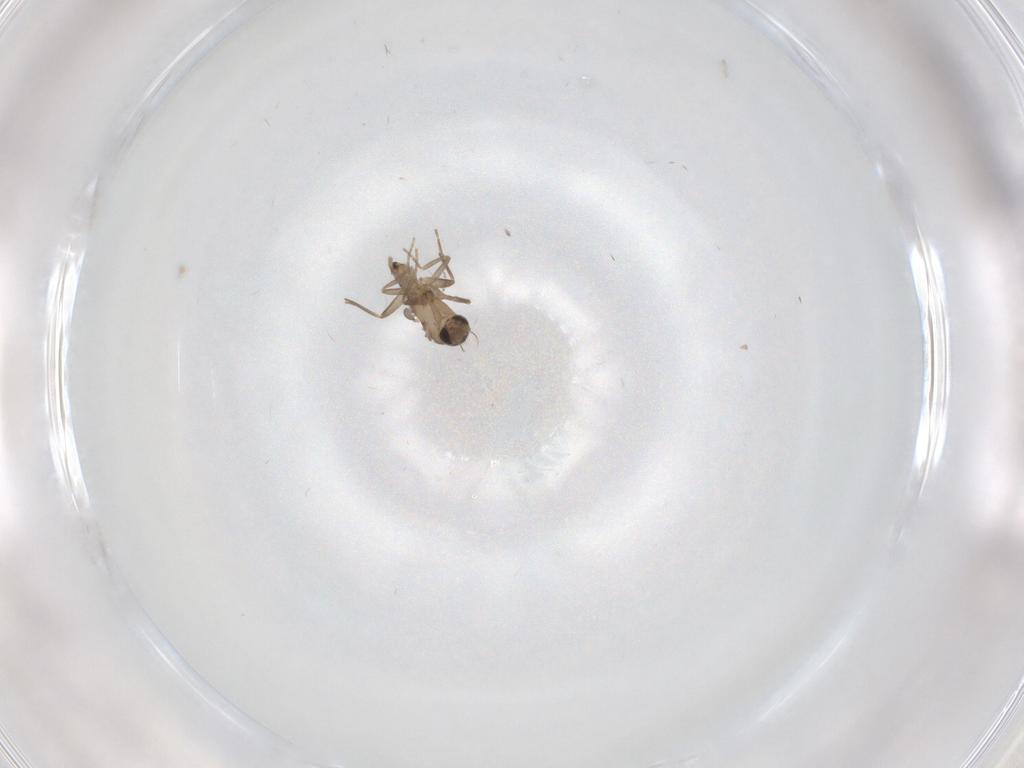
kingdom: Animalia
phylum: Arthropoda
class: Insecta
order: Diptera
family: Cecidomyiidae
